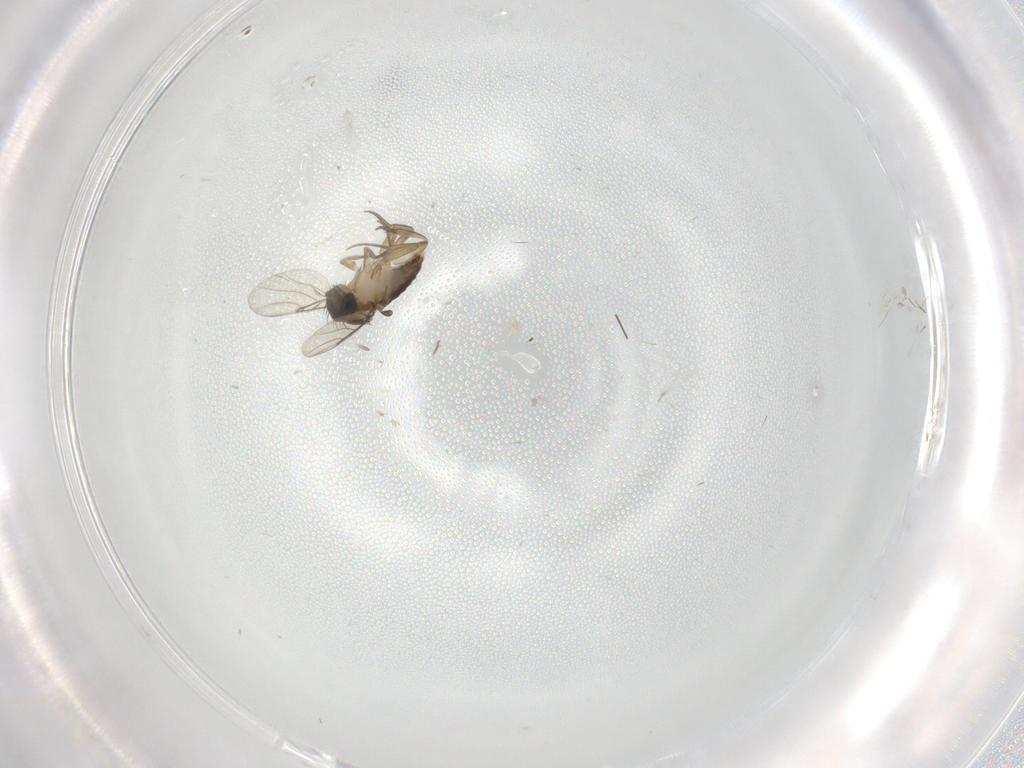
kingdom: Animalia
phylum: Arthropoda
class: Insecta
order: Diptera
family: Phoridae
